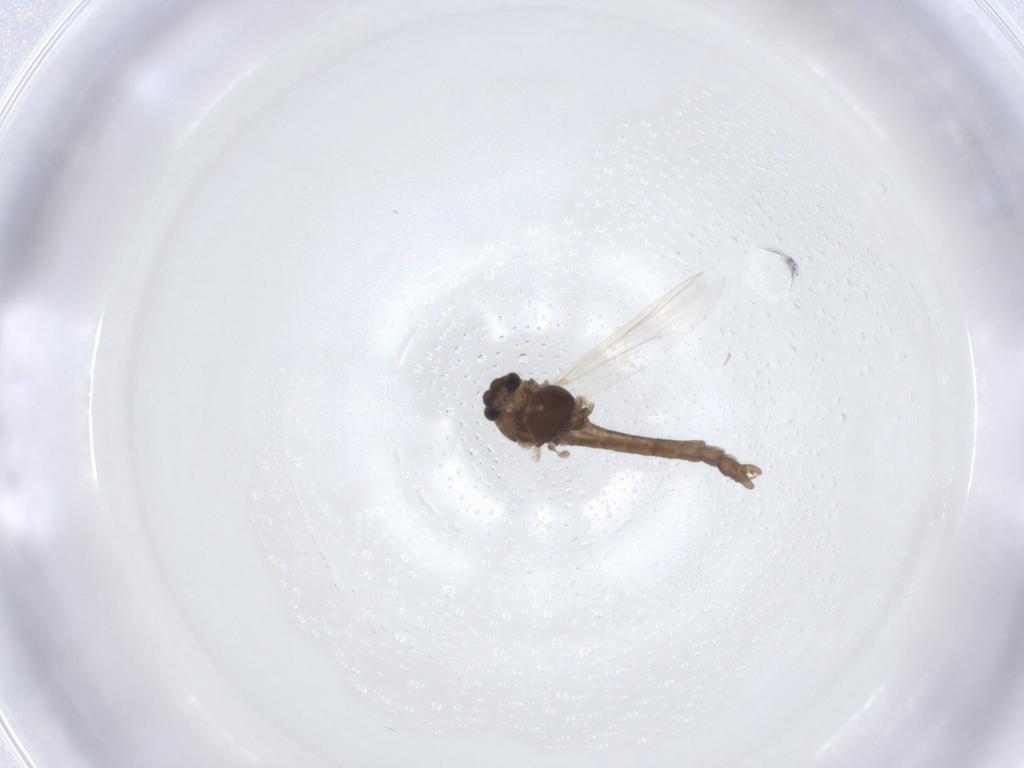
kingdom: Animalia
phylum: Arthropoda
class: Insecta
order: Diptera
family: Chironomidae
